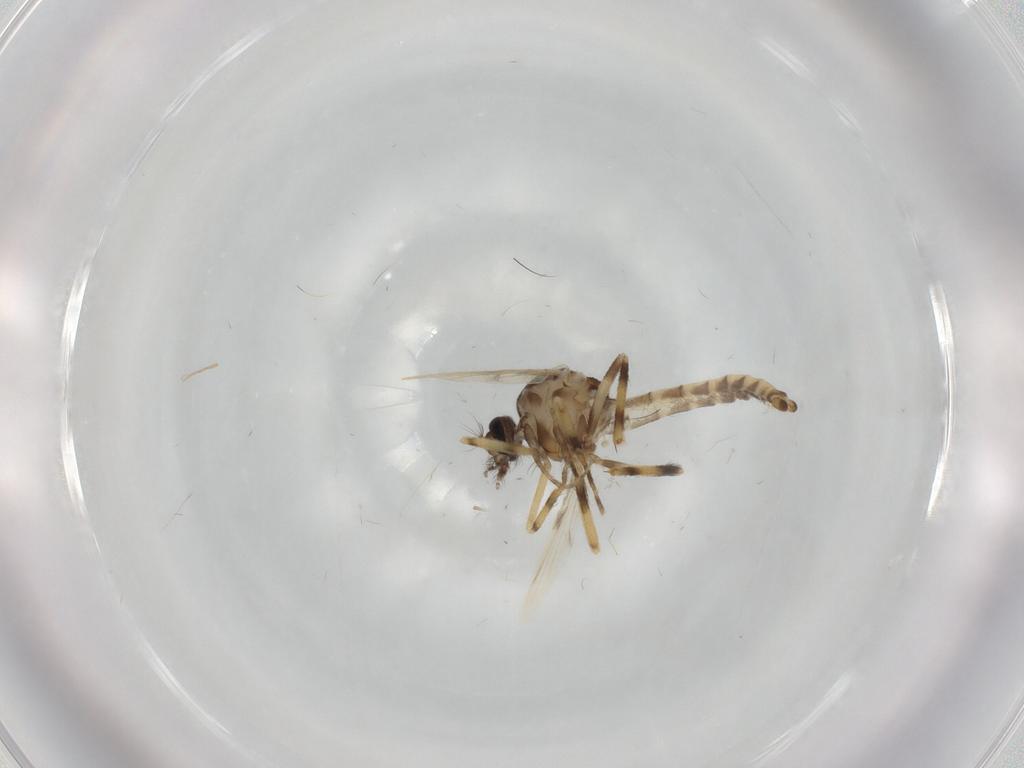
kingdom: Animalia
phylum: Arthropoda
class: Insecta
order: Diptera
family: Ceratopogonidae
